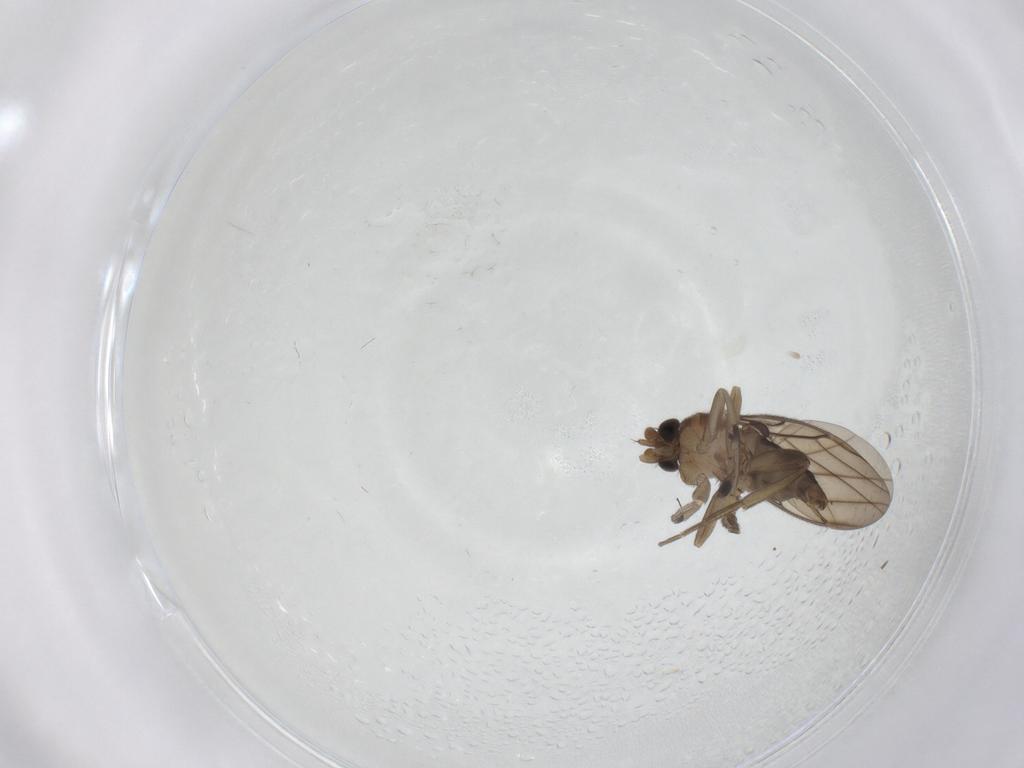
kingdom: Animalia
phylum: Arthropoda
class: Insecta
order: Diptera
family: Phoridae
